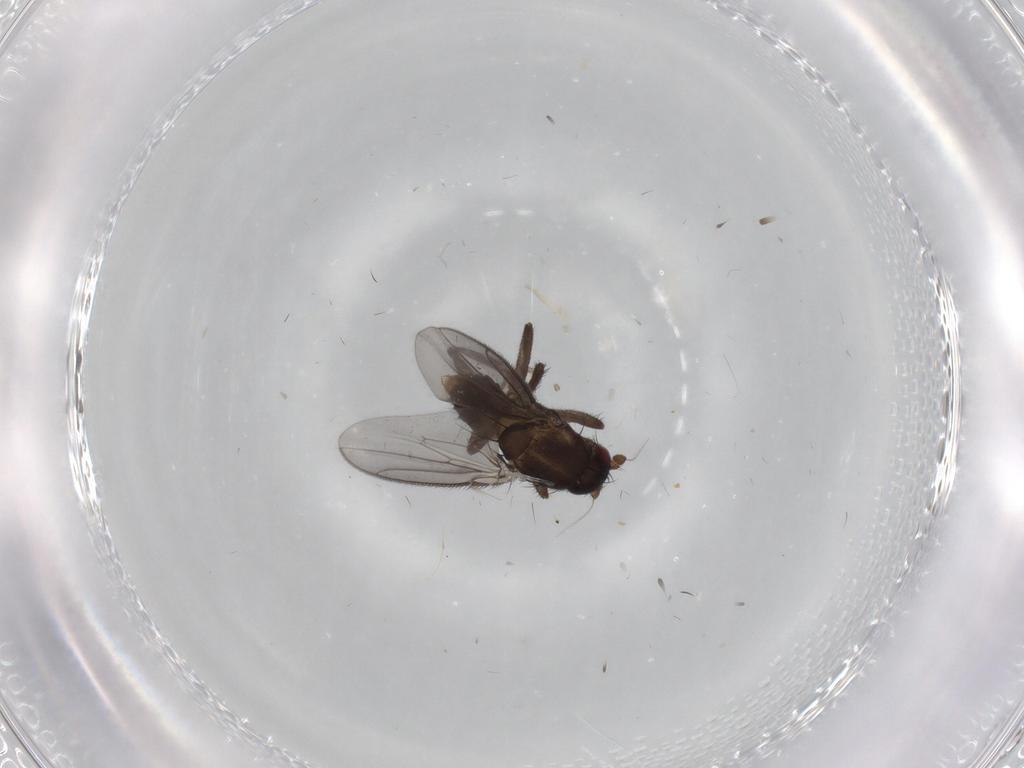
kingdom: Animalia
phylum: Arthropoda
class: Insecta
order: Diptera
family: Sphaeroceridae
